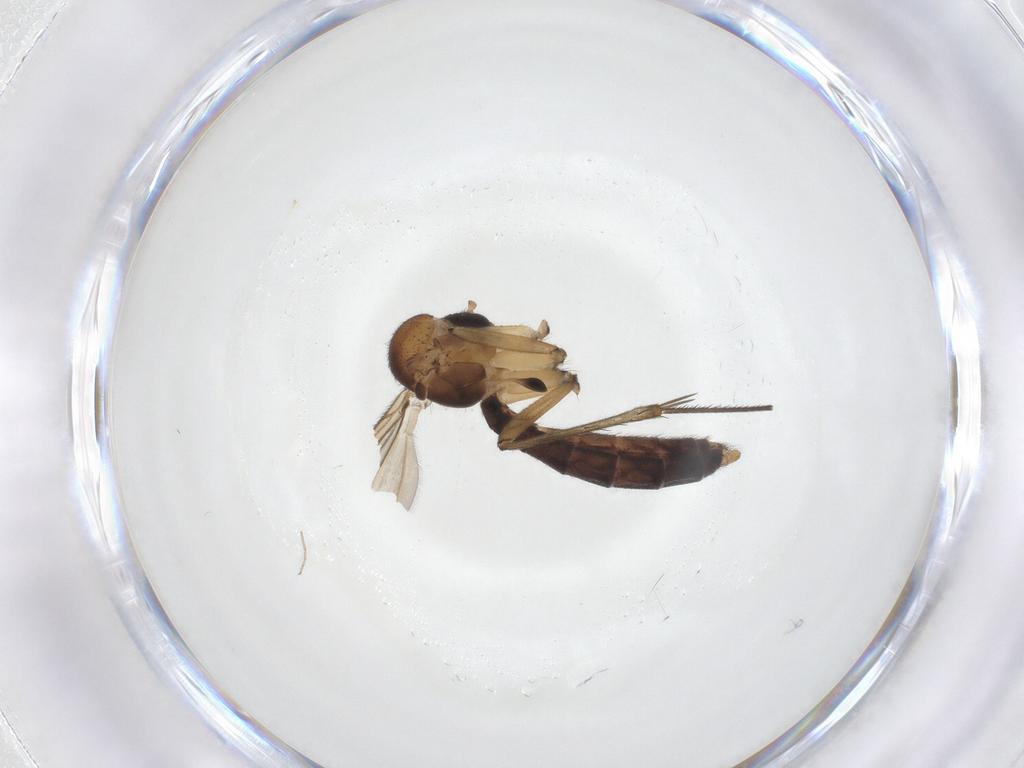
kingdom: Animalia
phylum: Arthropoda
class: Insecta
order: Diptera
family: Mycetophilidae
